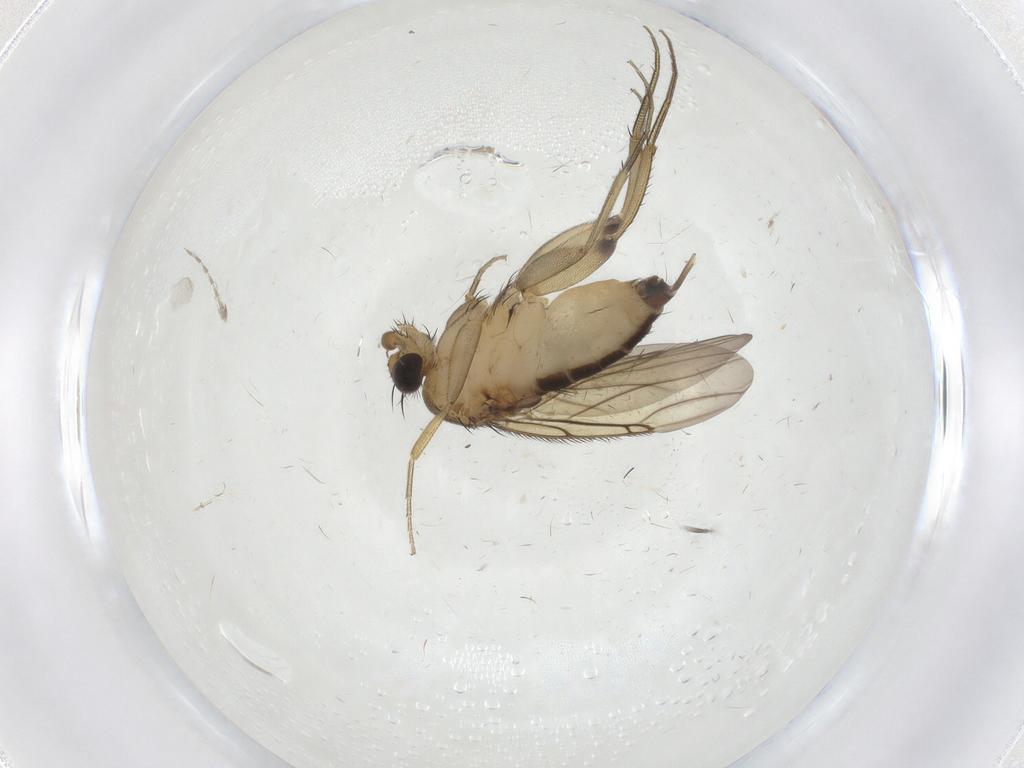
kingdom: Animalia
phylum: Arthropoda
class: Insecta
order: Diptera
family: Phoridae
